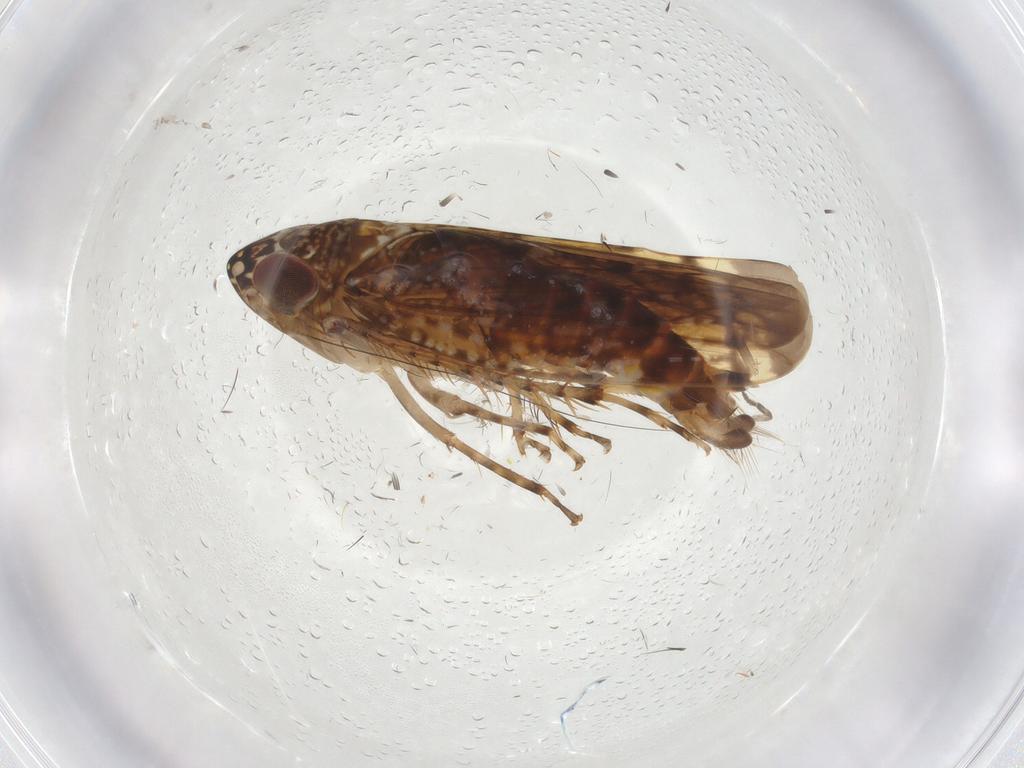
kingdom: Animalia
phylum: Arthropoda
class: Insecta
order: Hemiptera
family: Cicadellidae
